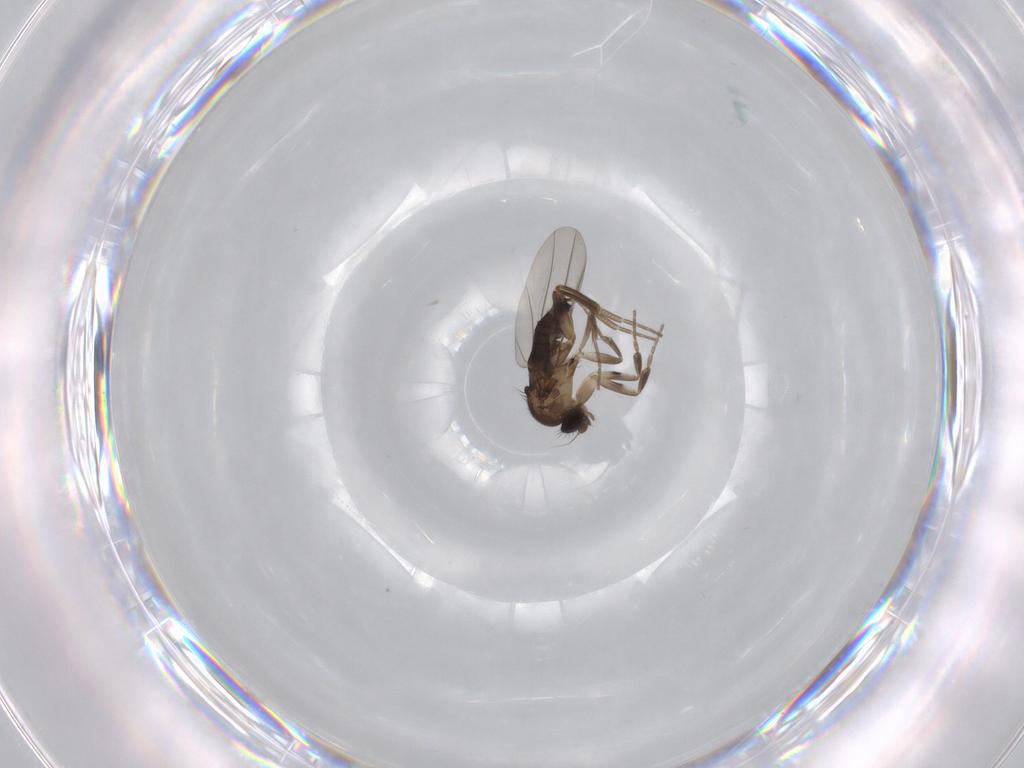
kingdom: Animalia
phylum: Arthropoda
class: Insecta
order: Diptera
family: Phoridae
